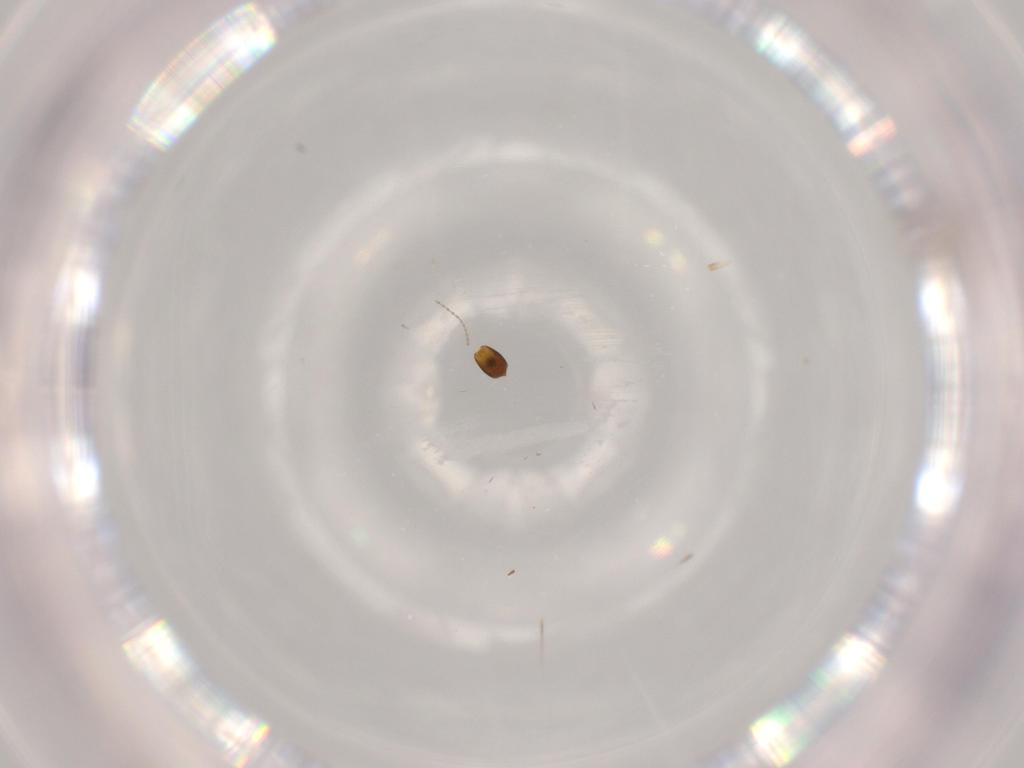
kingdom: Animalia
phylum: Arthropoda
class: Insecta
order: Hymenoptera
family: Diapriidae
